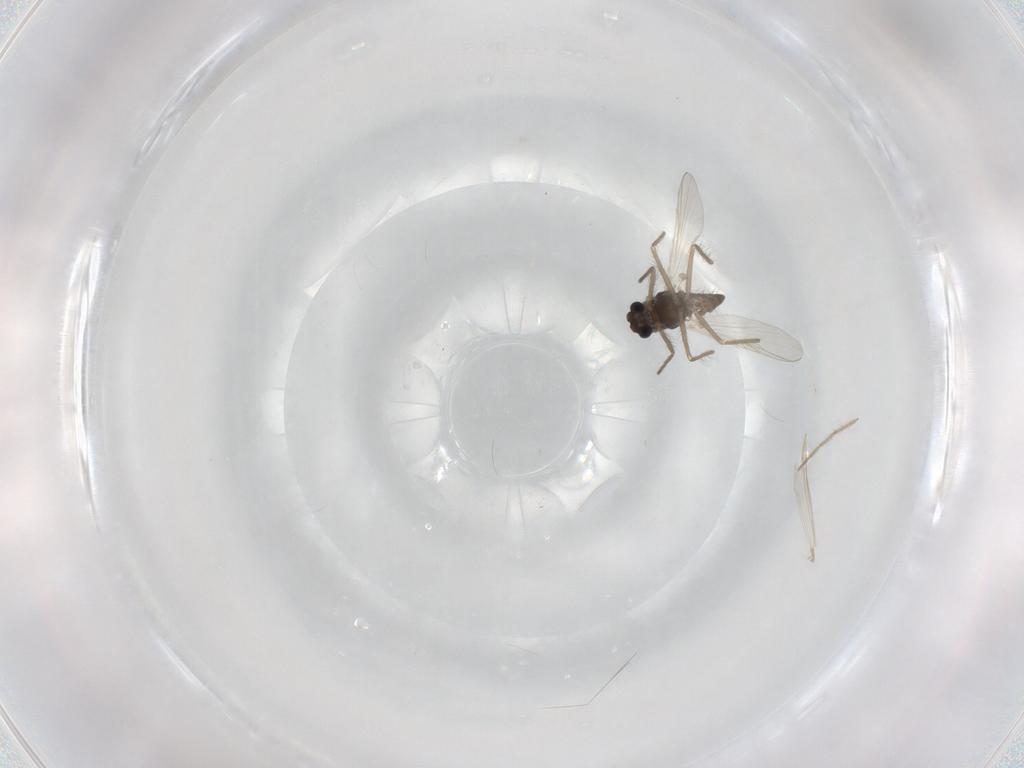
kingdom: Animalia
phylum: Arthropoda
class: Insecta
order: Diptera
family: Chironomidae
